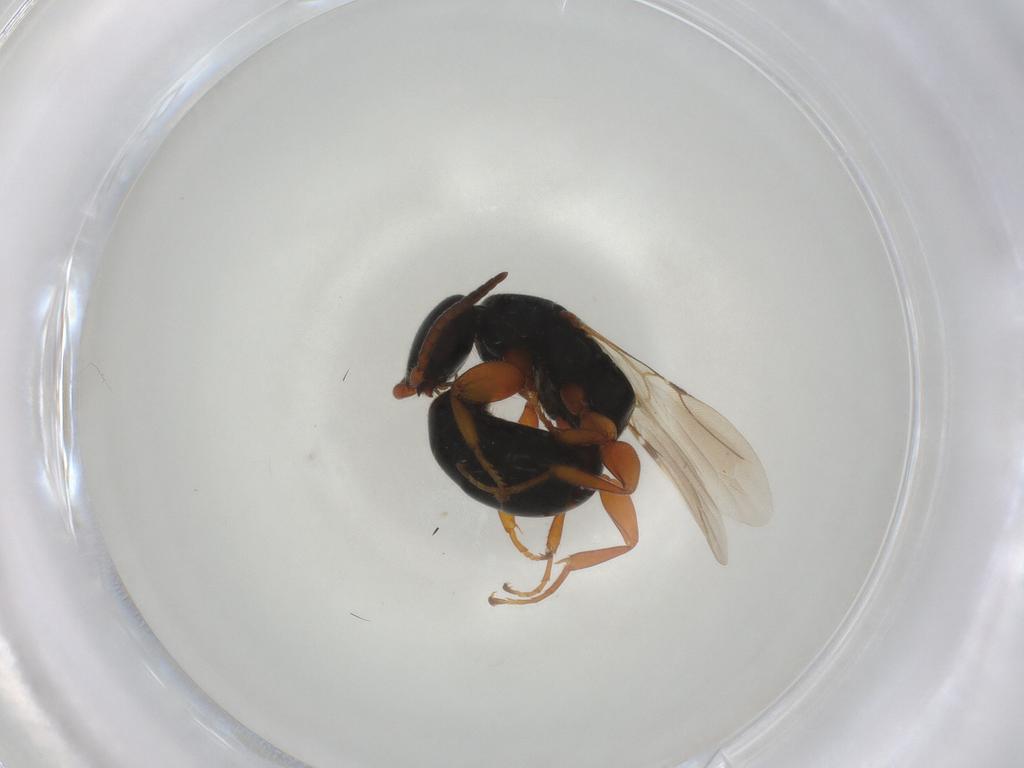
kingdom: Animalia
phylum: Arthropoda
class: Insecta
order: Hymenoptera
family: Bethylidae
